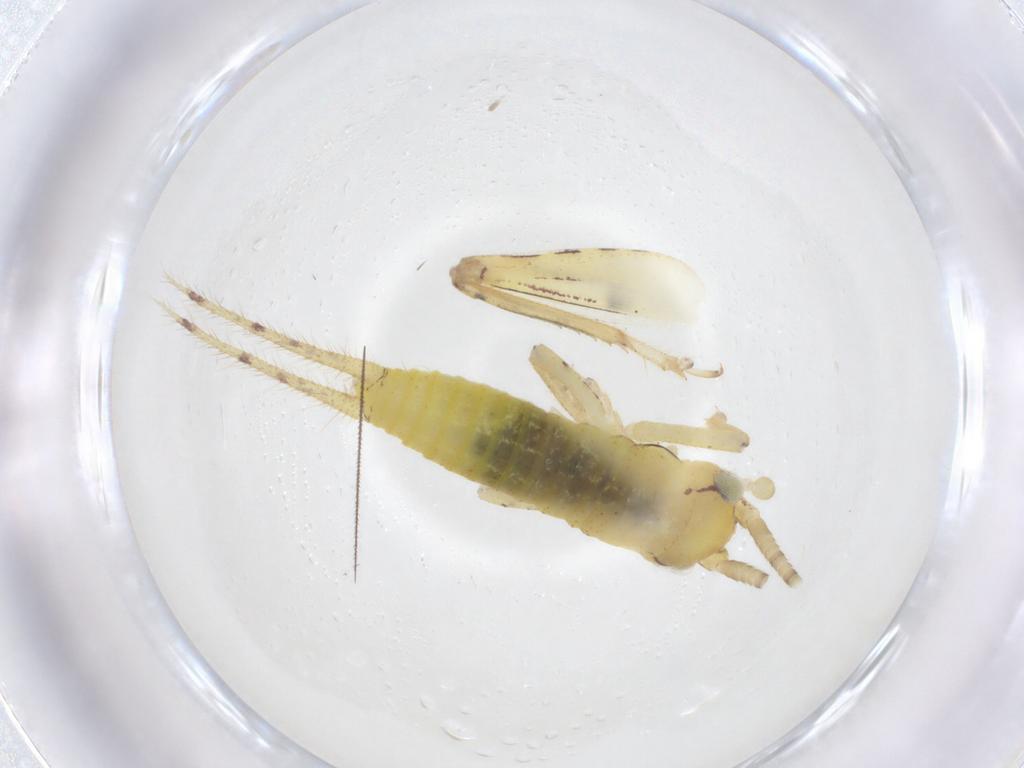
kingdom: Animalia
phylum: Arthropoda
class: Insecta
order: Orthoptera
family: Gryllidae
